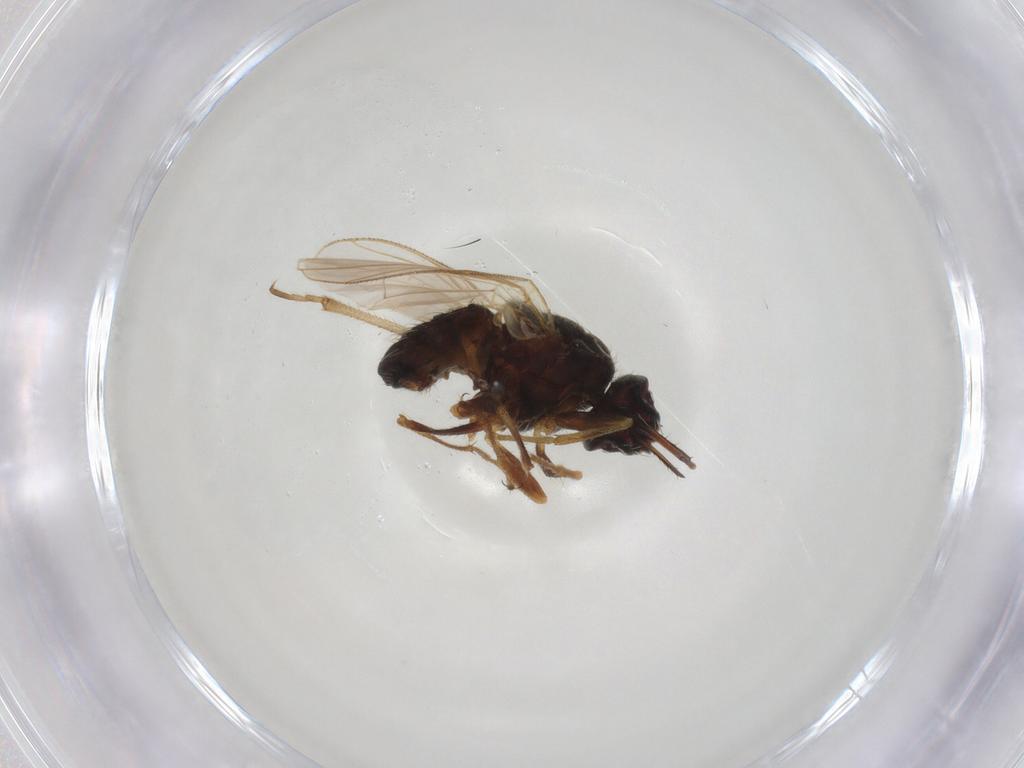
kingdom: Animalia
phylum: Arthropoda
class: Insecta
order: Diptera
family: Muscidae
